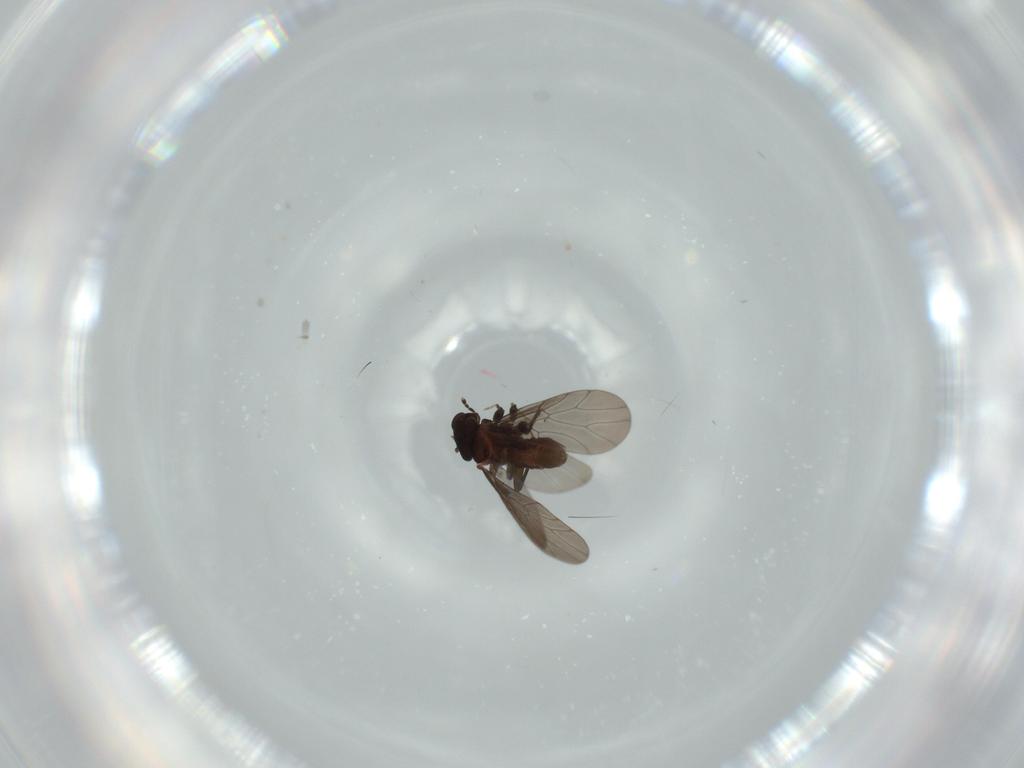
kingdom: Animalia
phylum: Arthropoda
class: Insecta
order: Psocodea
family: Lepidopsocidae
